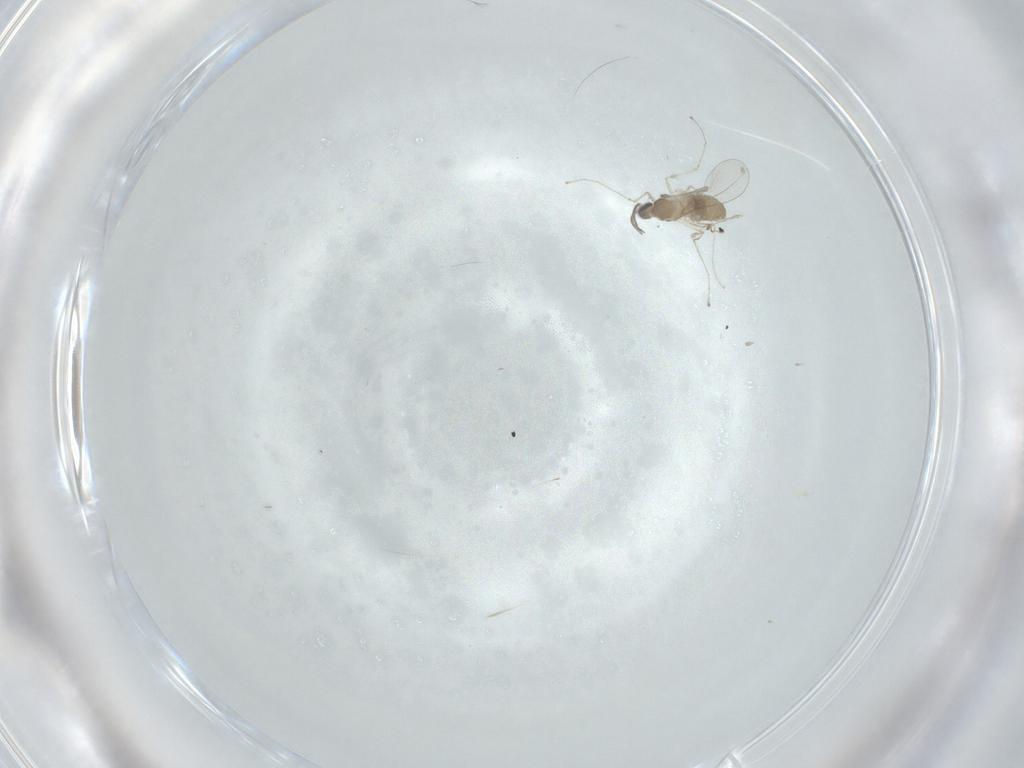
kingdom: Animalia
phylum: Arthropoda
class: Insecta
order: Diptera
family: Cecidomyiidae
